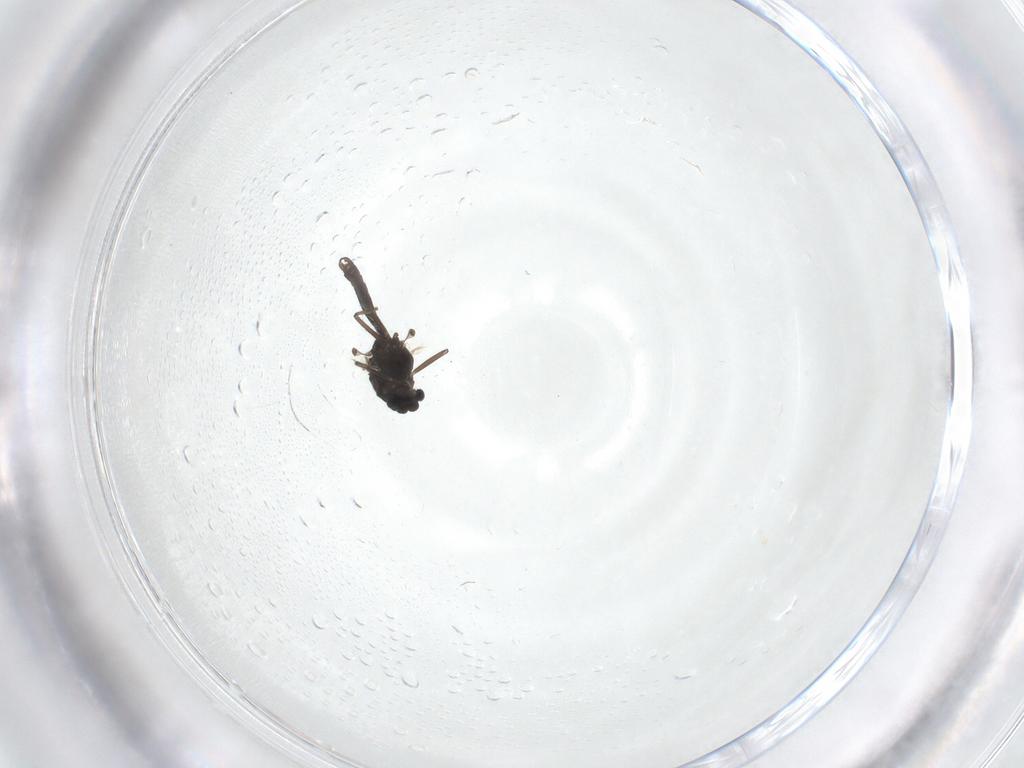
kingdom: Animalia
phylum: Arthropoda
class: Insecta
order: Diptera
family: Chironomidae
